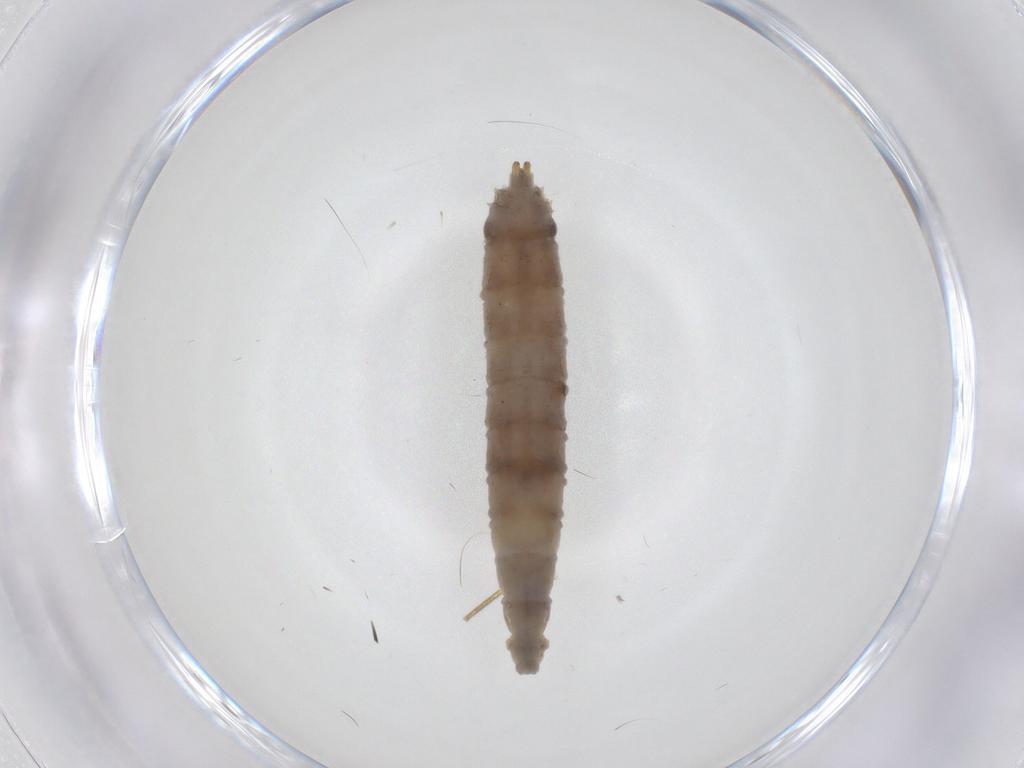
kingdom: Animalia
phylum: Arthropoda
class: Insecta
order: Diptera
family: Drosophilidae
